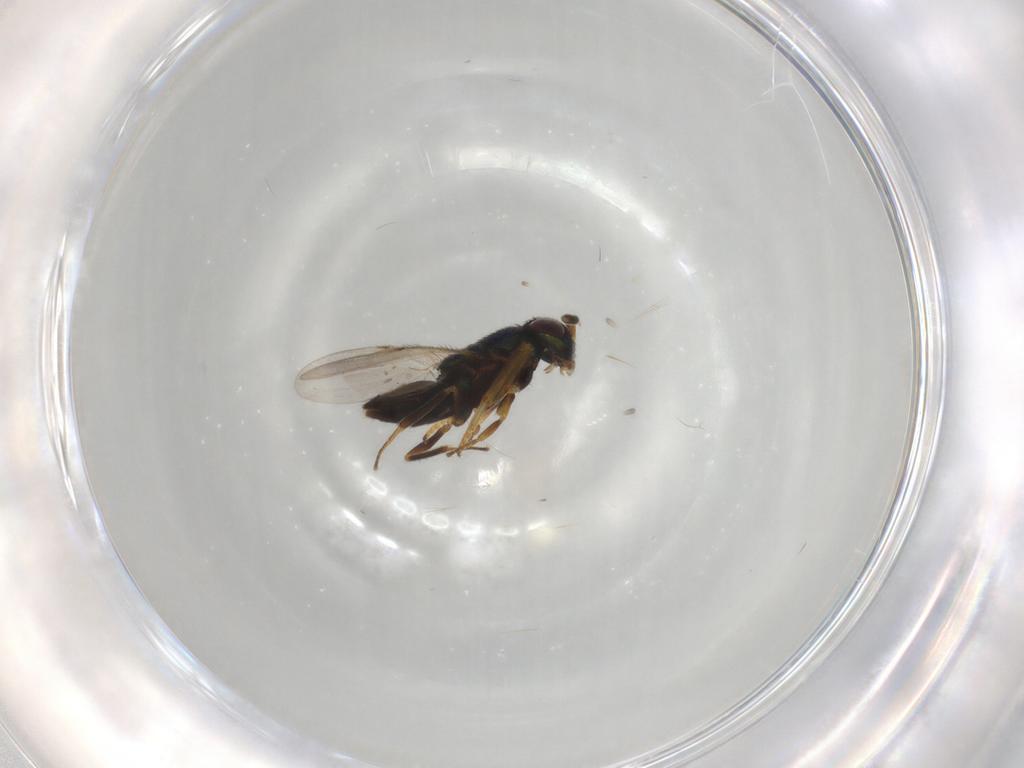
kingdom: Animalia
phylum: Arthropoda
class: Insecta
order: Hymenoptera
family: Encyrtidae
